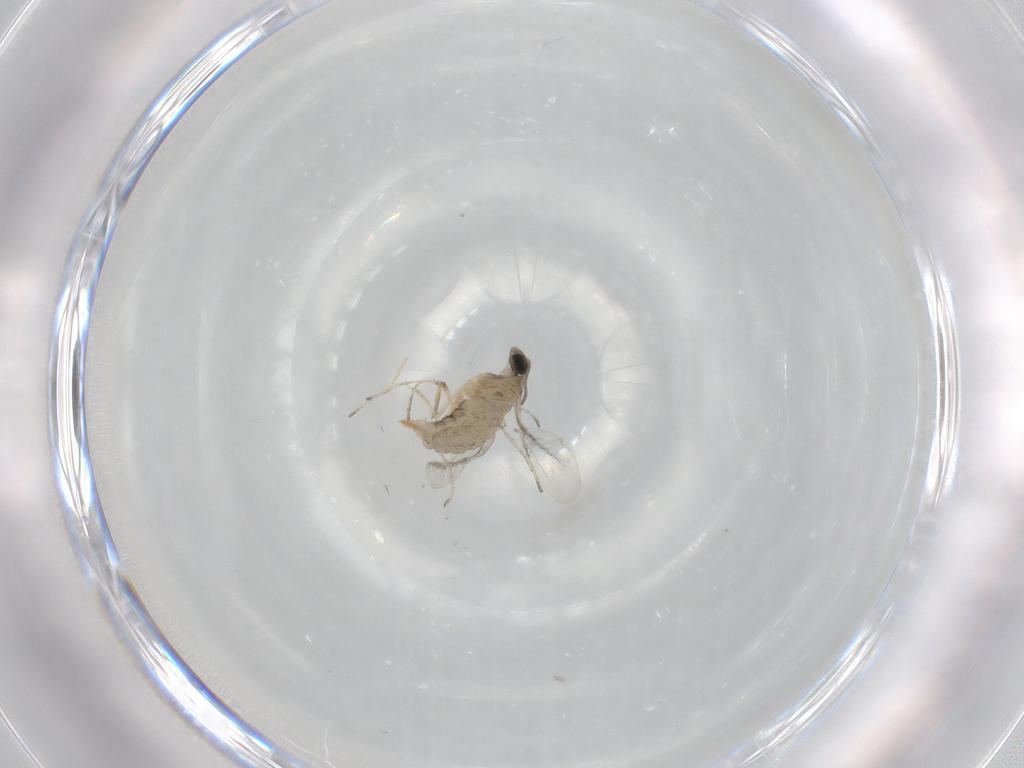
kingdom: Animalia
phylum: Arthropoda
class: Insecta
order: Diptera
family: Cecidomyiidae
